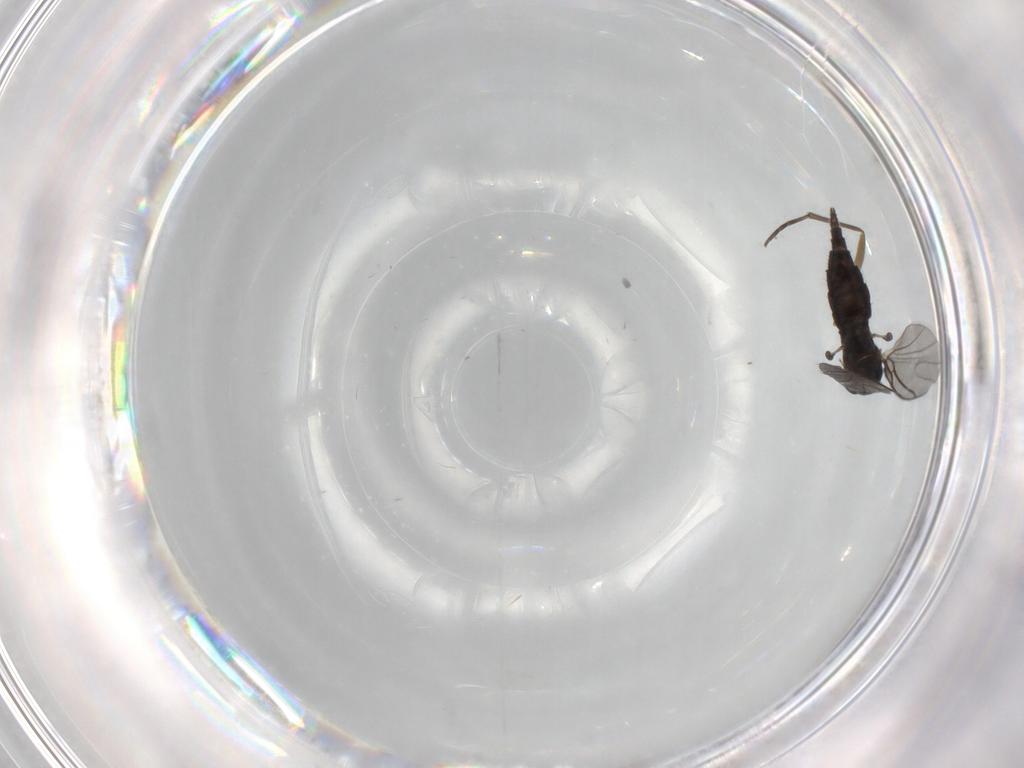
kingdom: Animalia
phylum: Arthropoda
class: Insecta
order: Diptera
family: Sciaridae
